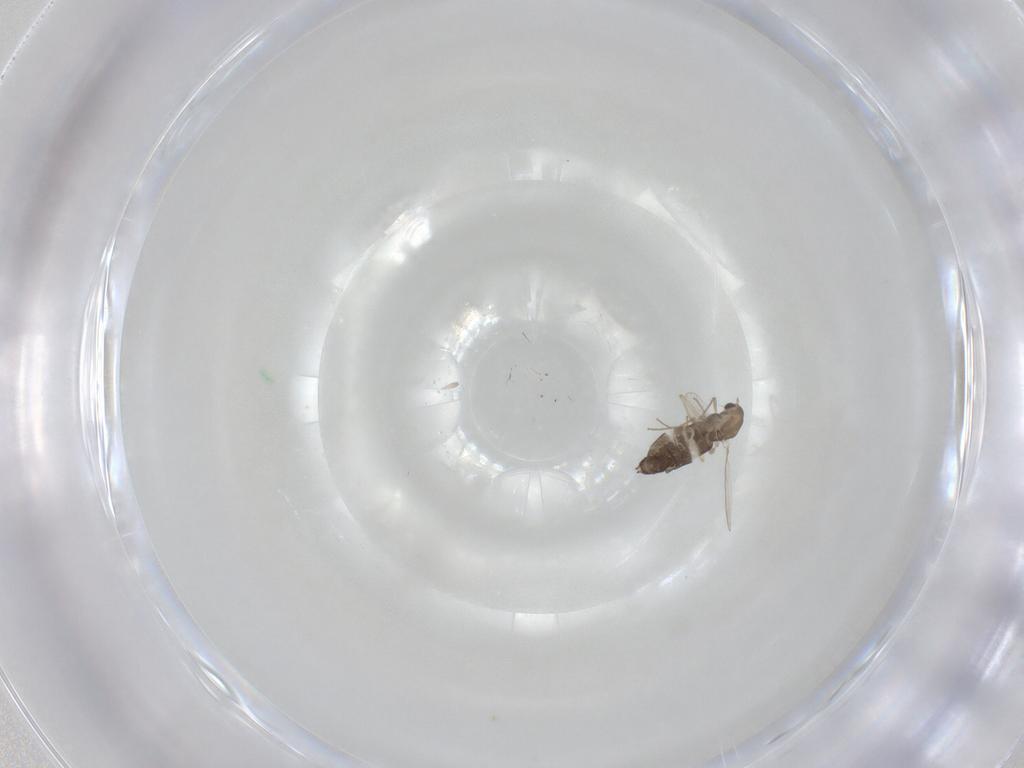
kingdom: Animalia
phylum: Arthropoda
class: Insecta
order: Diptera
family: Chironomidae
